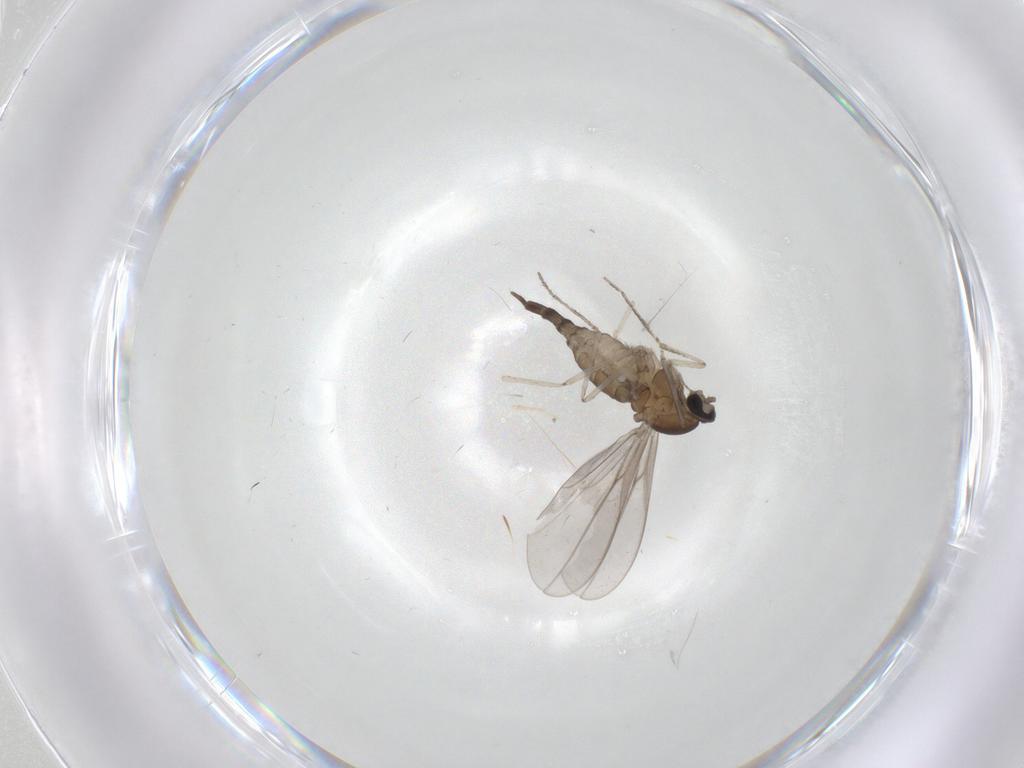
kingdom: Animalia
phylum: Arthropoda
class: Insecta
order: Diptera
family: Cecidomyiidae
